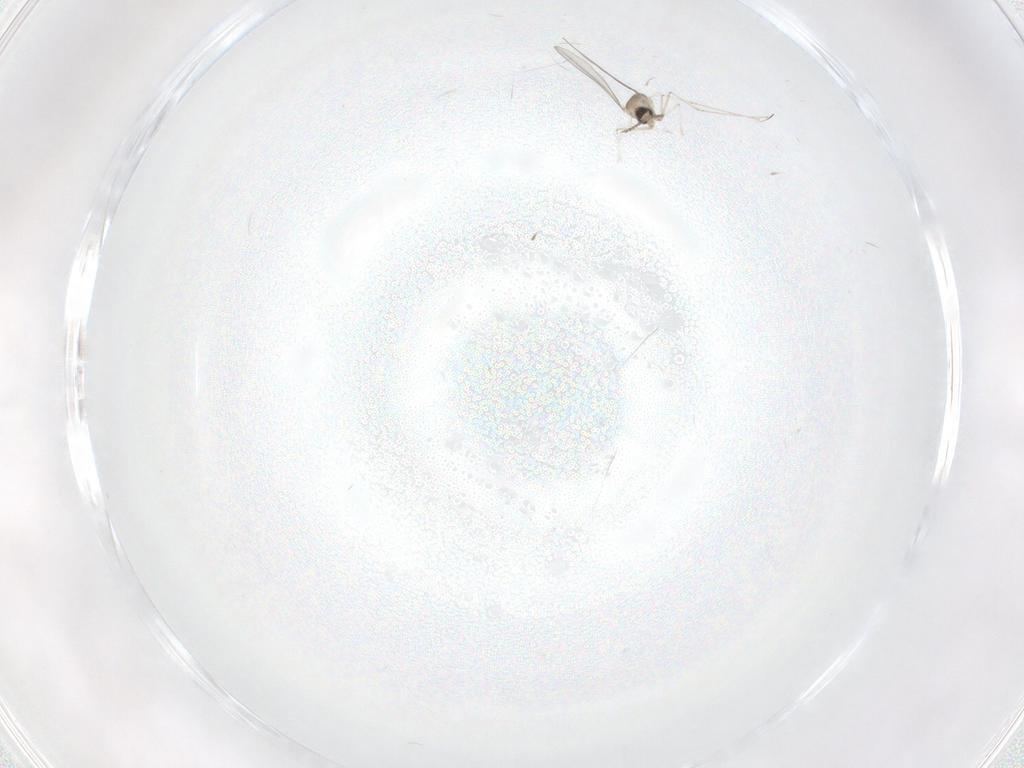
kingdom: Animalia
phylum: Arthropoda
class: Insecta
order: Diptera
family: Cecidomyiidae
